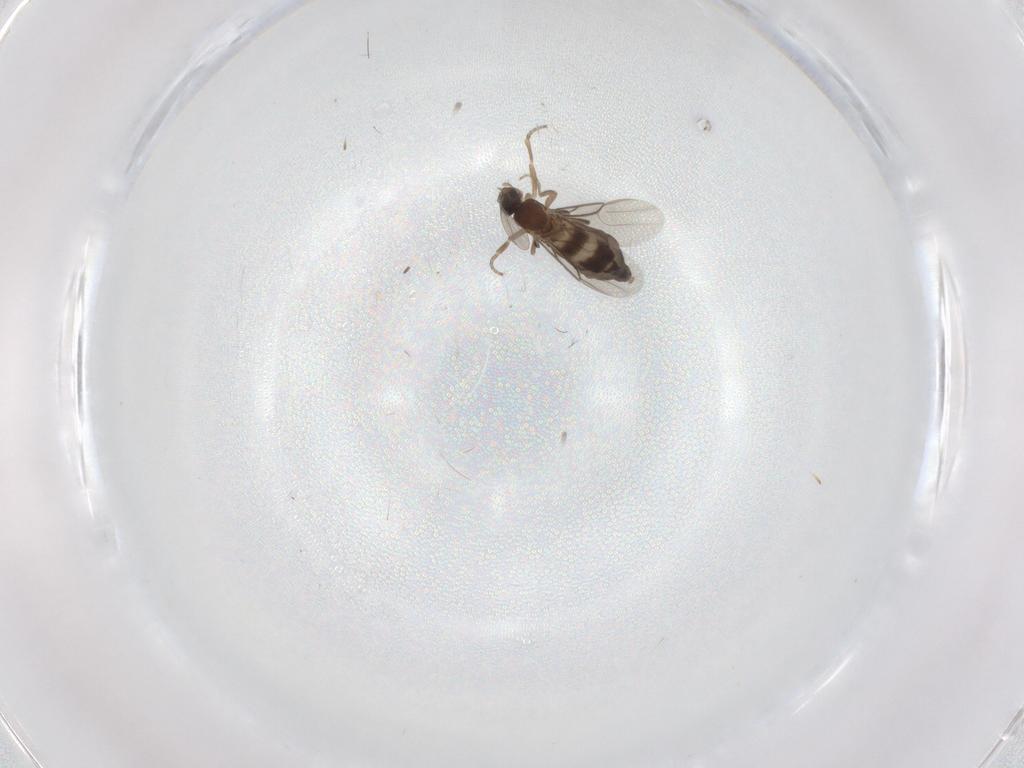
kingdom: Animalia
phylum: Arthropoda
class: Insecta
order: Diptera
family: Phoridae
